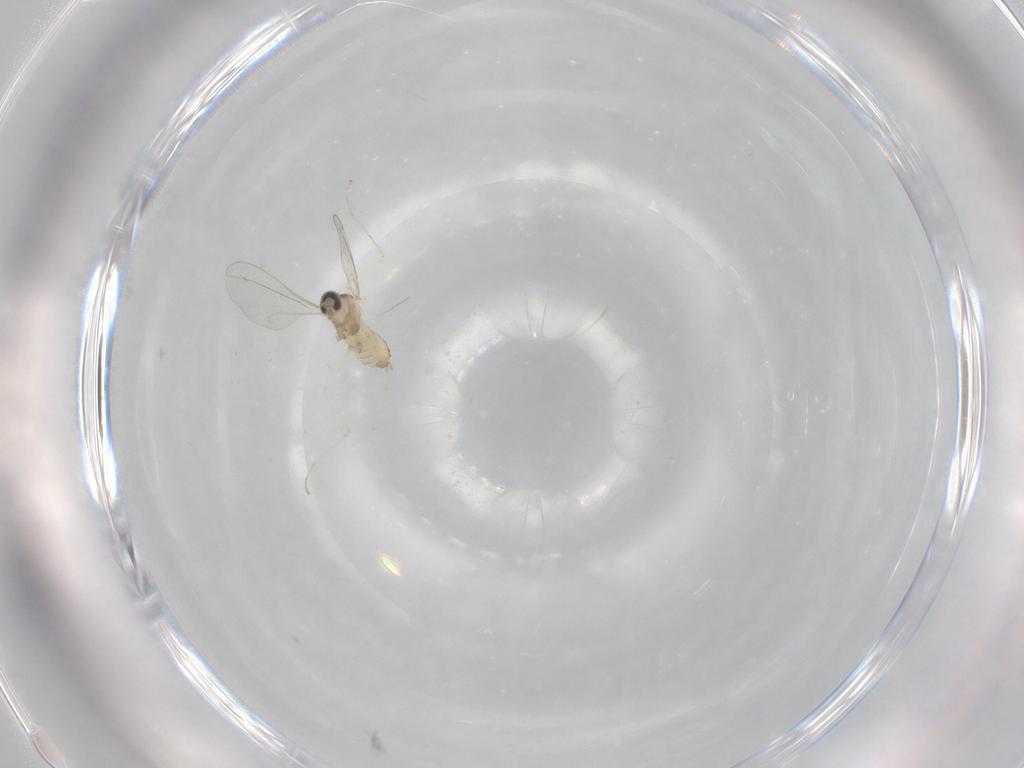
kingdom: Animalia
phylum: Arthropoda
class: Insecta
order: Diptera
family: Cecidomyiidae
